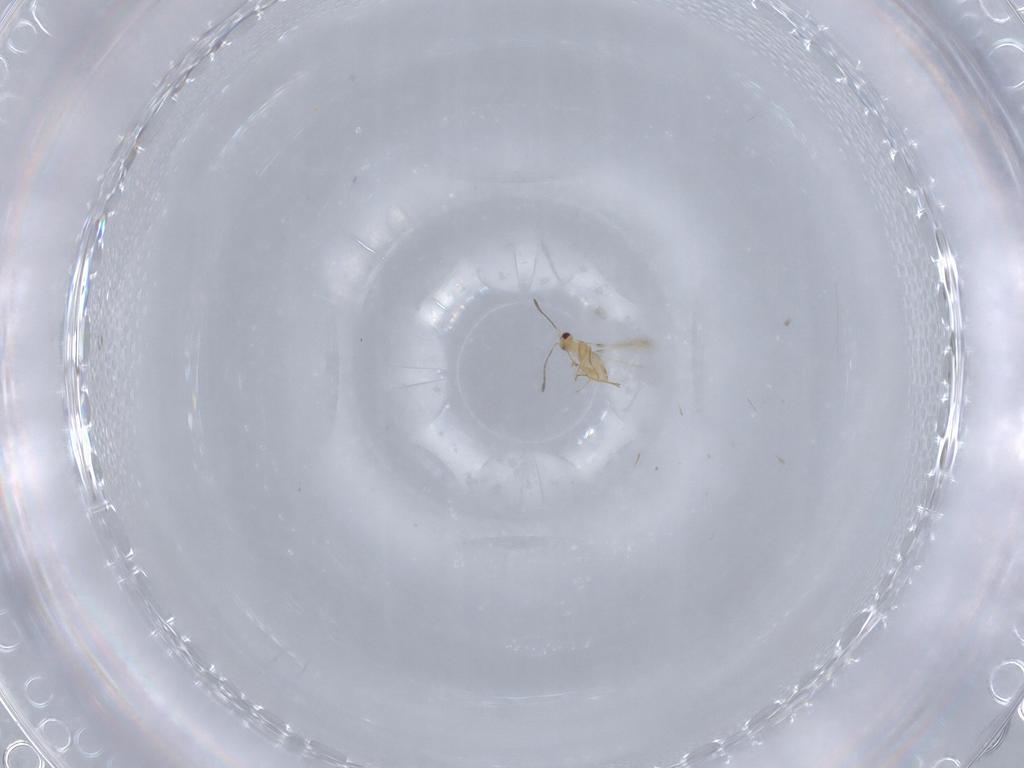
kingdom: Animalia
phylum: Arthropoda
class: Insecta
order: Hymenoptera
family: Mymaridae
